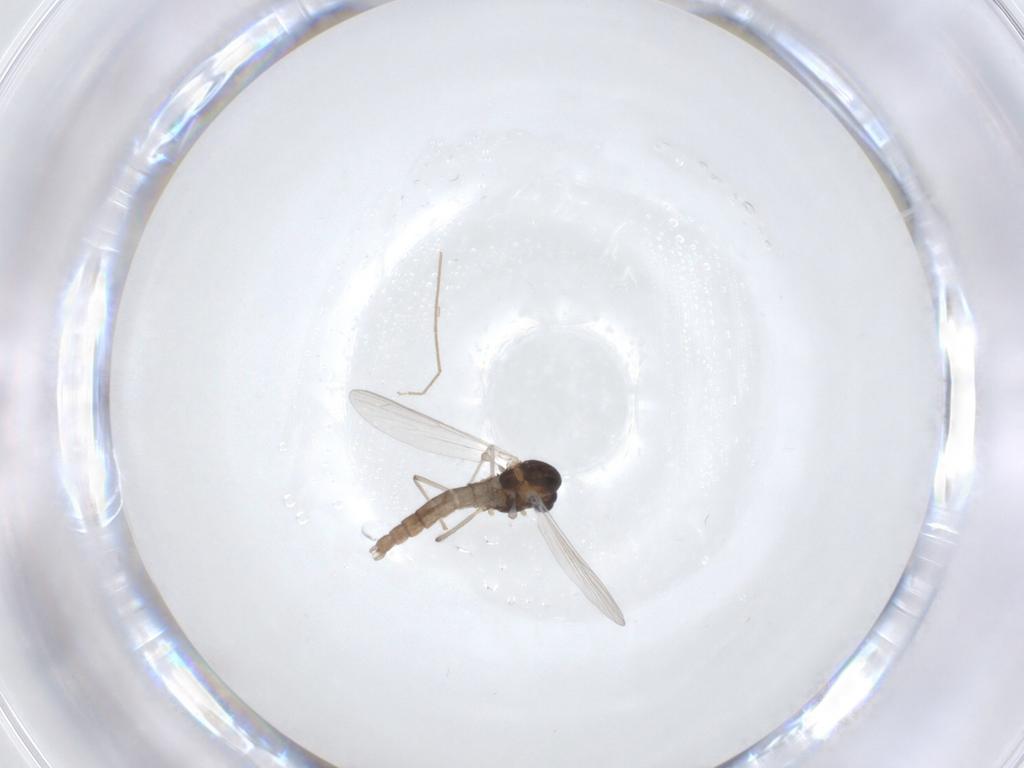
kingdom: Animalia
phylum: Arthropoda
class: Insecta
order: Diptera
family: Chironomidae
